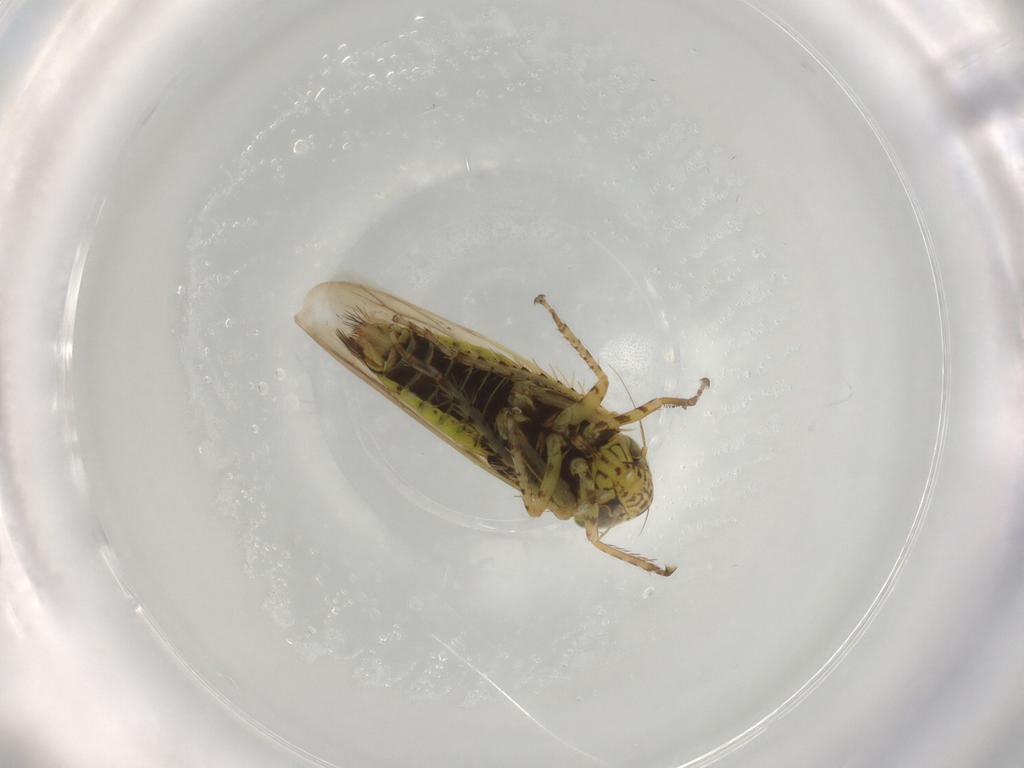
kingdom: Animalia
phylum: Arthropoda
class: Insecta
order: Hemiptera
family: Cicadellidae
